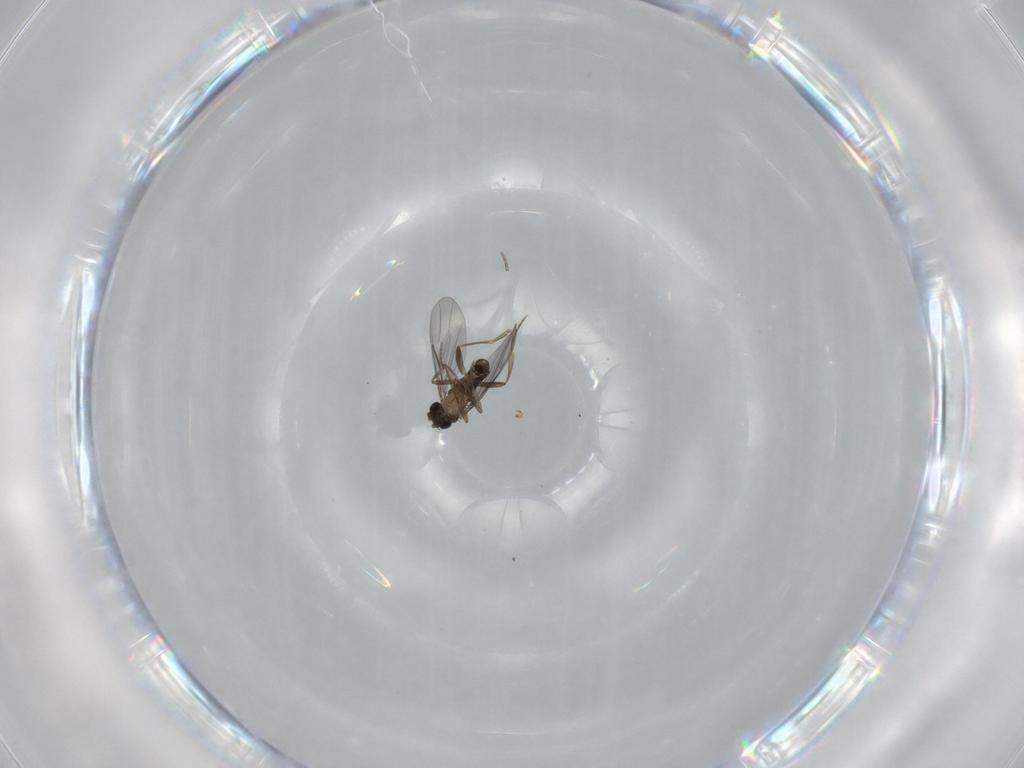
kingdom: Animalia
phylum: Arthropoda
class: Insecta
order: Diptera
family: Ceratopogonidae
